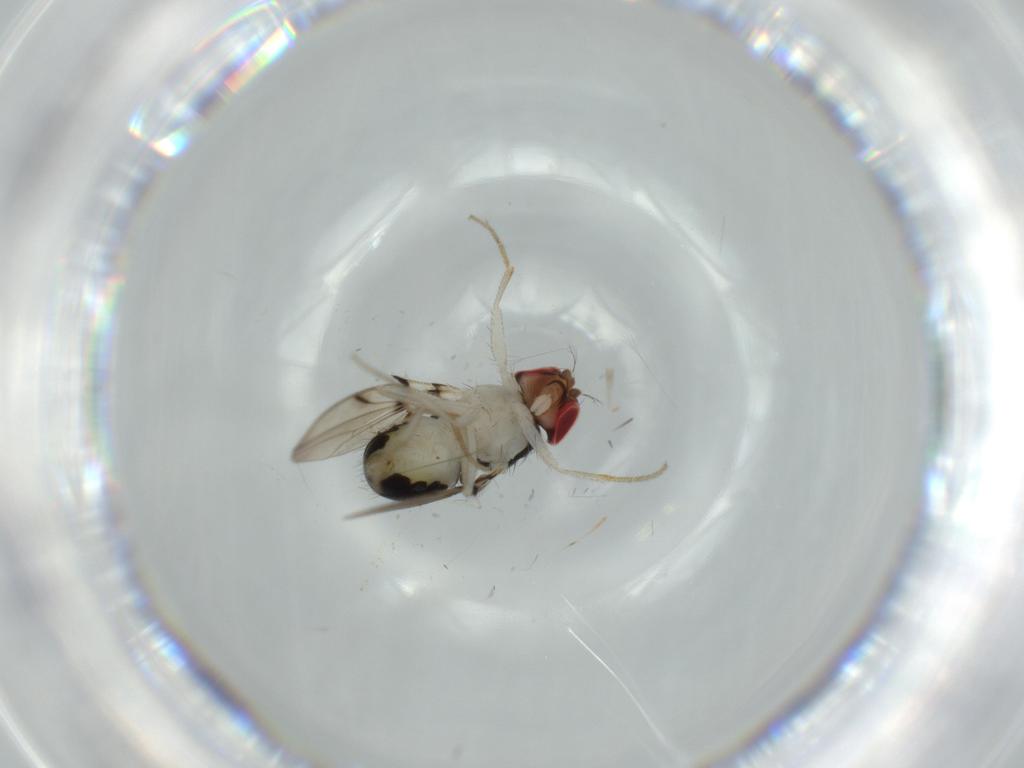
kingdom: Animalia
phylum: Arthropoda
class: Insecta
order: Diptera
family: Drosophilidae
